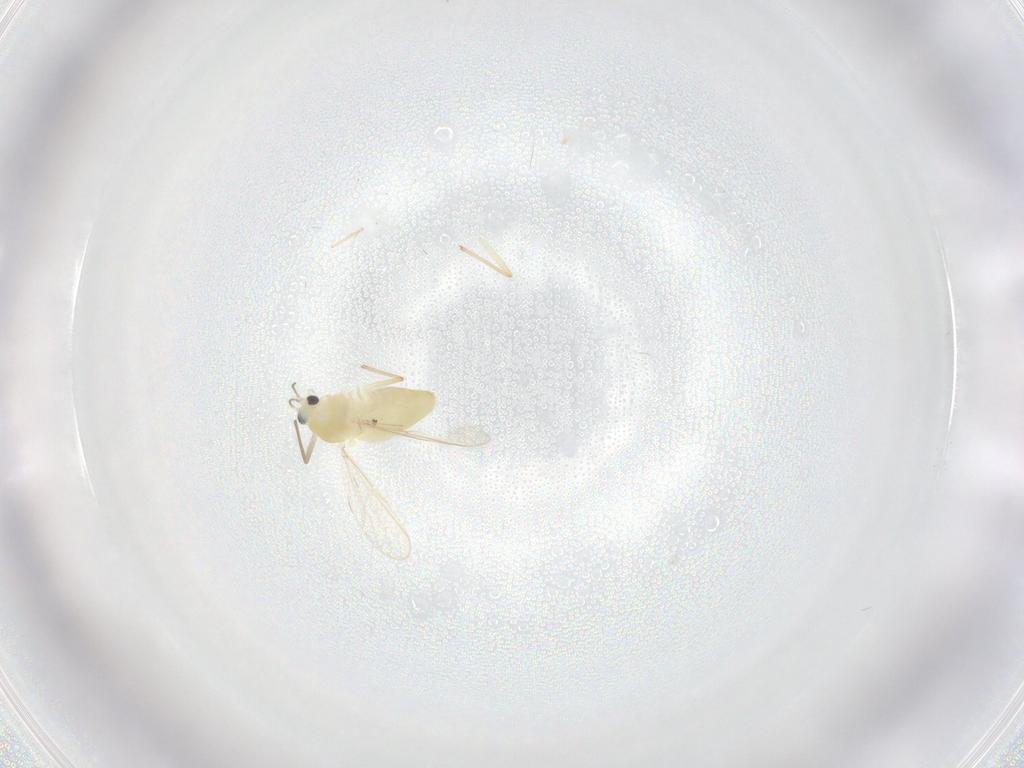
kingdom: Animalia
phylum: Arthropoda
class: Insecta
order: Diptera
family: Sphaeroceridae
